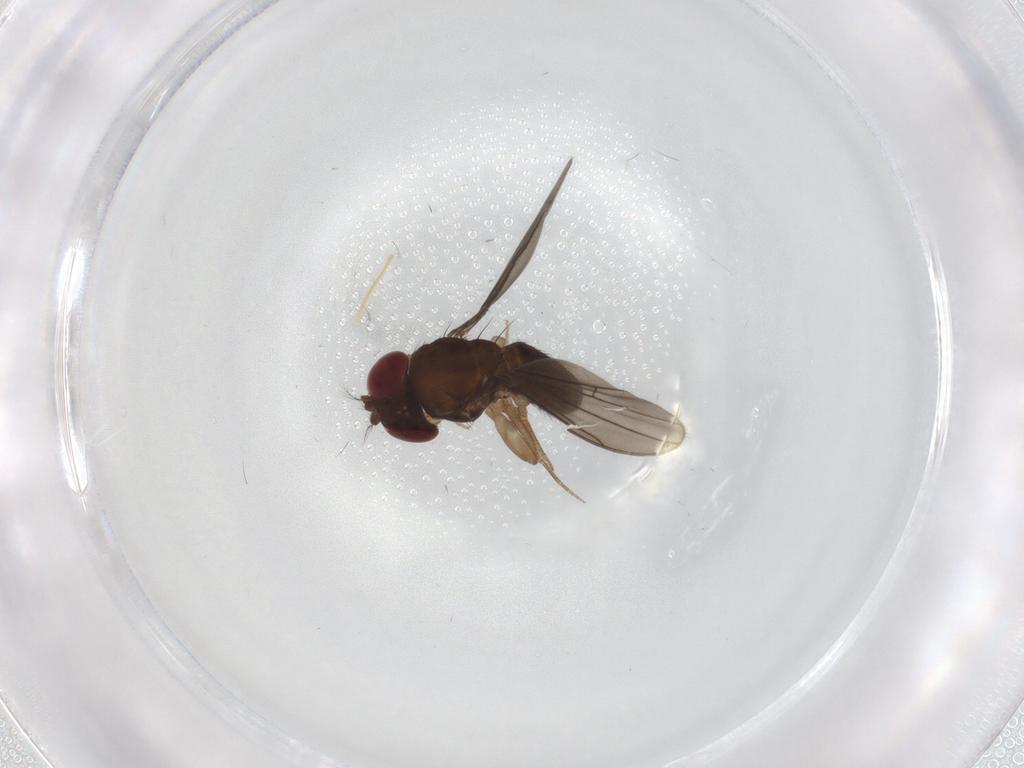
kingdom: Animalia
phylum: Arthropoda
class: Insecta
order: Diptera
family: Drosophilidae
